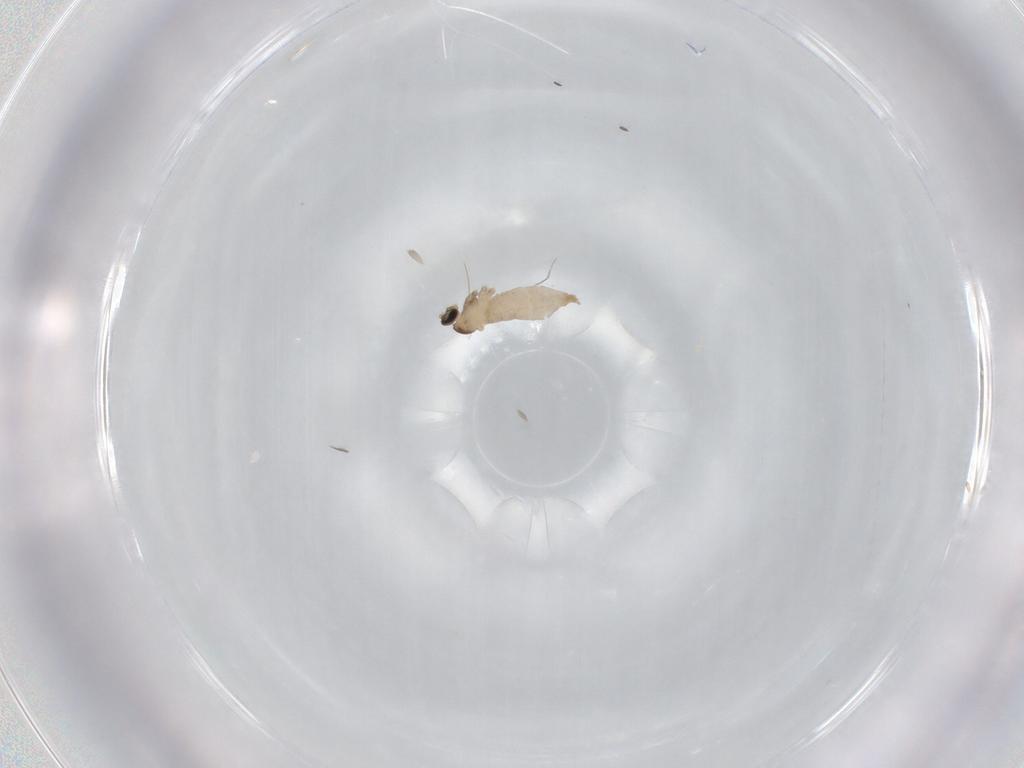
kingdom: Animalia
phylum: Arthropoda
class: Insecta
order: Diptera
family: Cecidomyiidae
